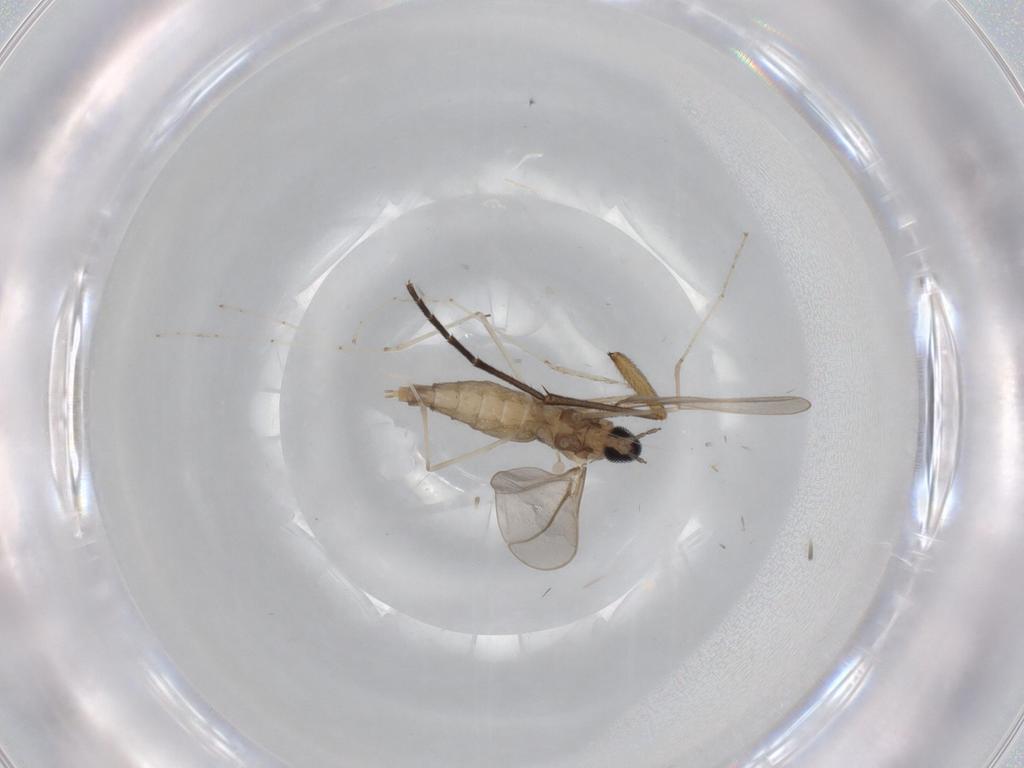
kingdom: Animalia
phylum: Arthropoda
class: Insecta
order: Diptera
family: Cecidomyiidae
